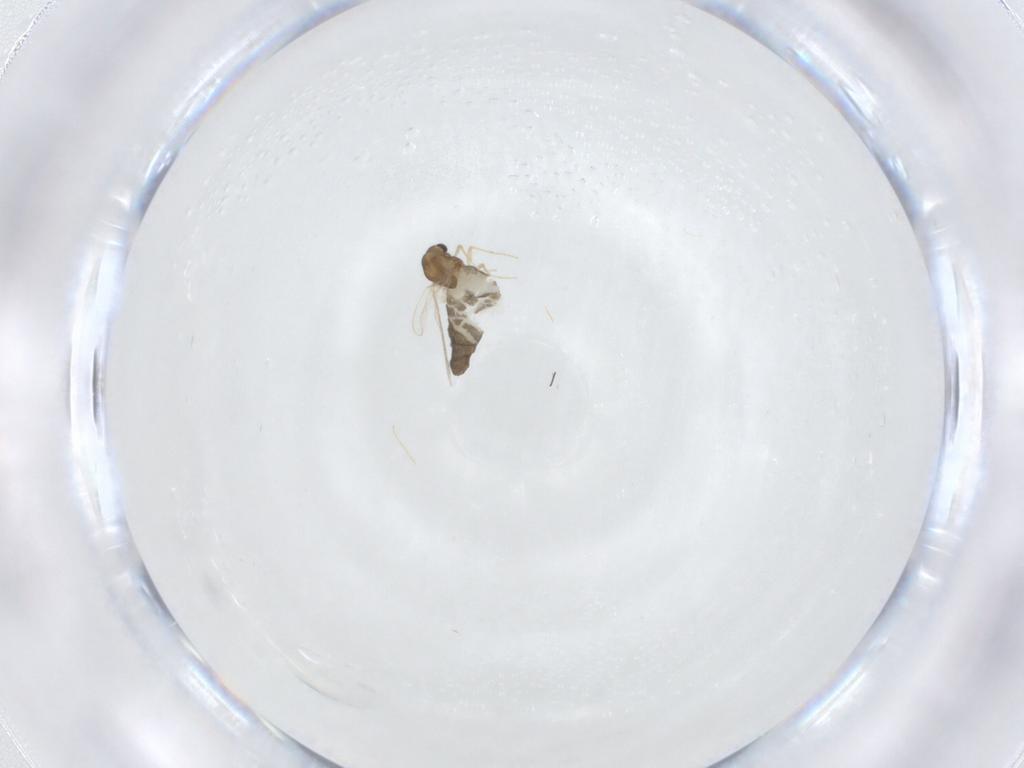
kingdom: Animalia
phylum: Arthropoda
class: Insecta
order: Diptera
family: Chironomidae
